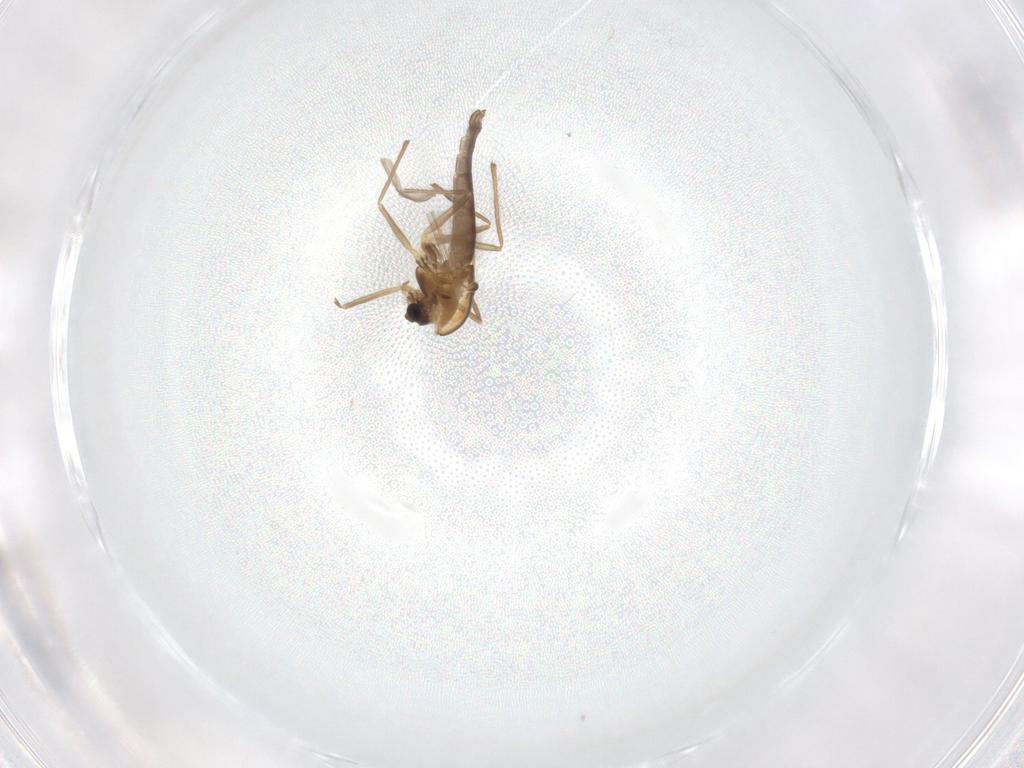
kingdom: Animalia
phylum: Arthropoda
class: Insecta
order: Diptera
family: Chironomidae
